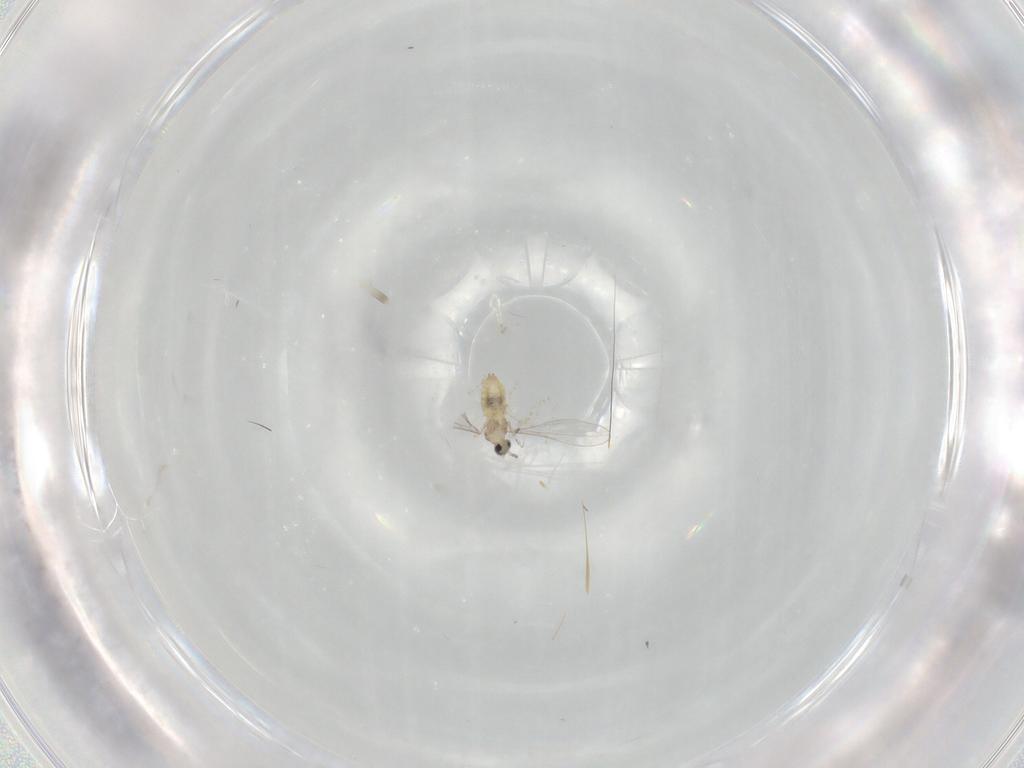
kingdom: Animalia
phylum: Arthropoda
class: Insecta
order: Diptera
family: Cecidomyiidae
